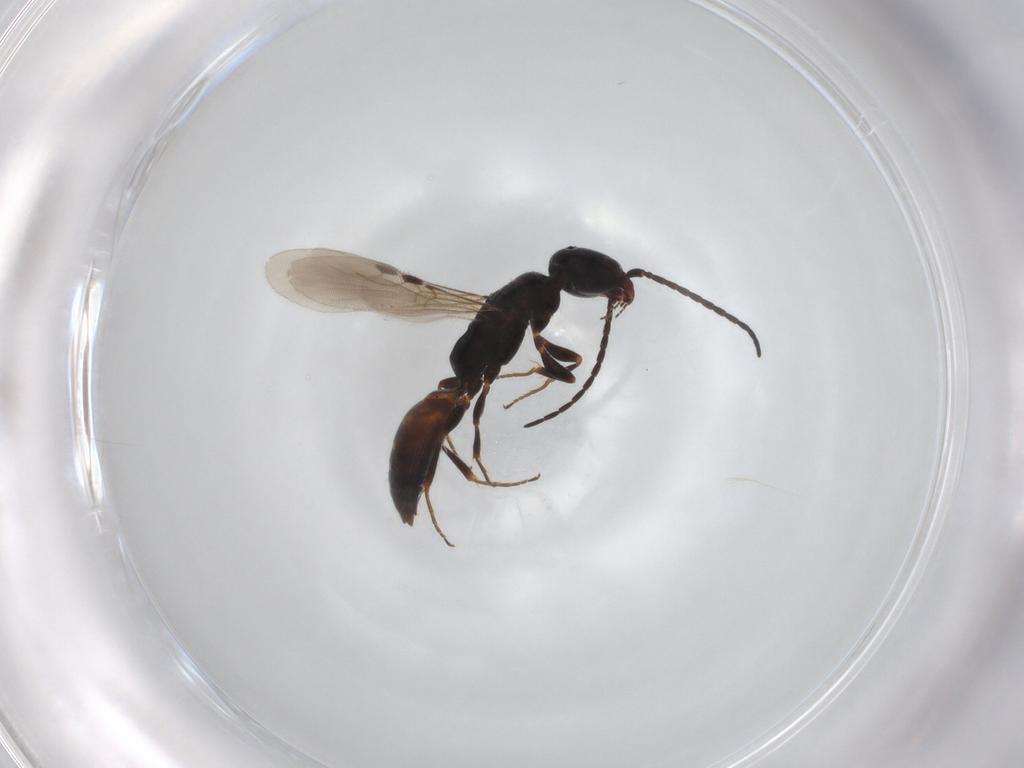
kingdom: Animalia
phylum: Arthropoda
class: Insecta
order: Hymenoptera
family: Bethylidae
